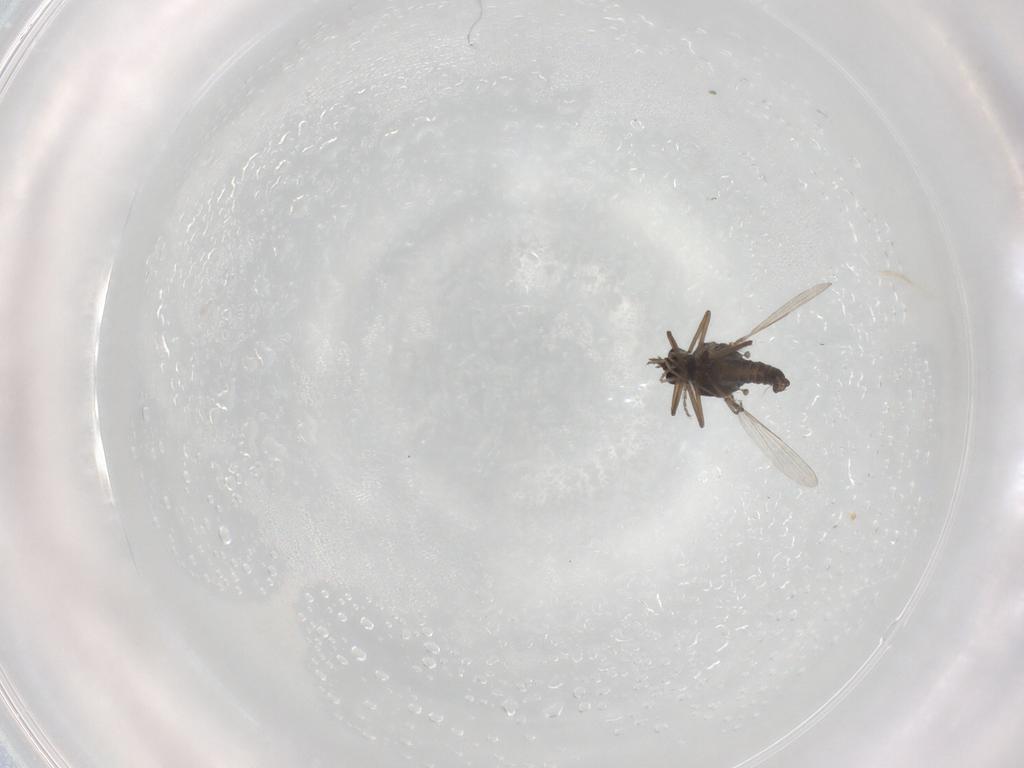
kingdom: Animalia
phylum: Arthropoda
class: Insecta
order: Diptera
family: Ceratopogonidae
